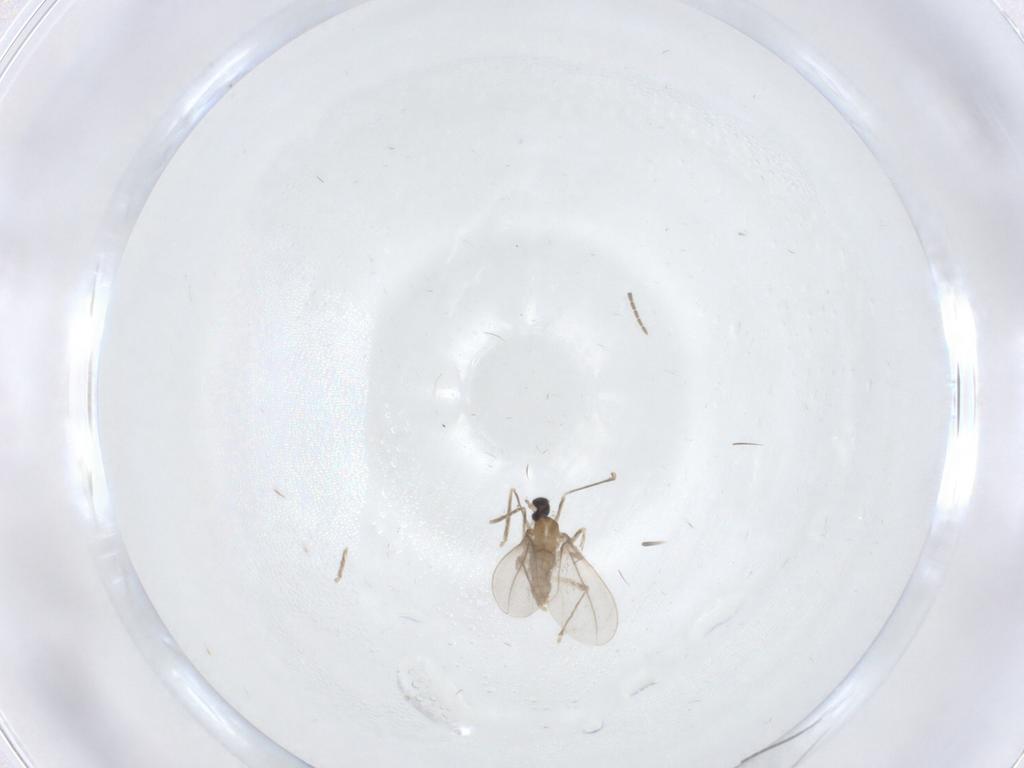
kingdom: Animalia
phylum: Arthropoda
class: Insecta
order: Diptera
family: Cecidomyiidae
